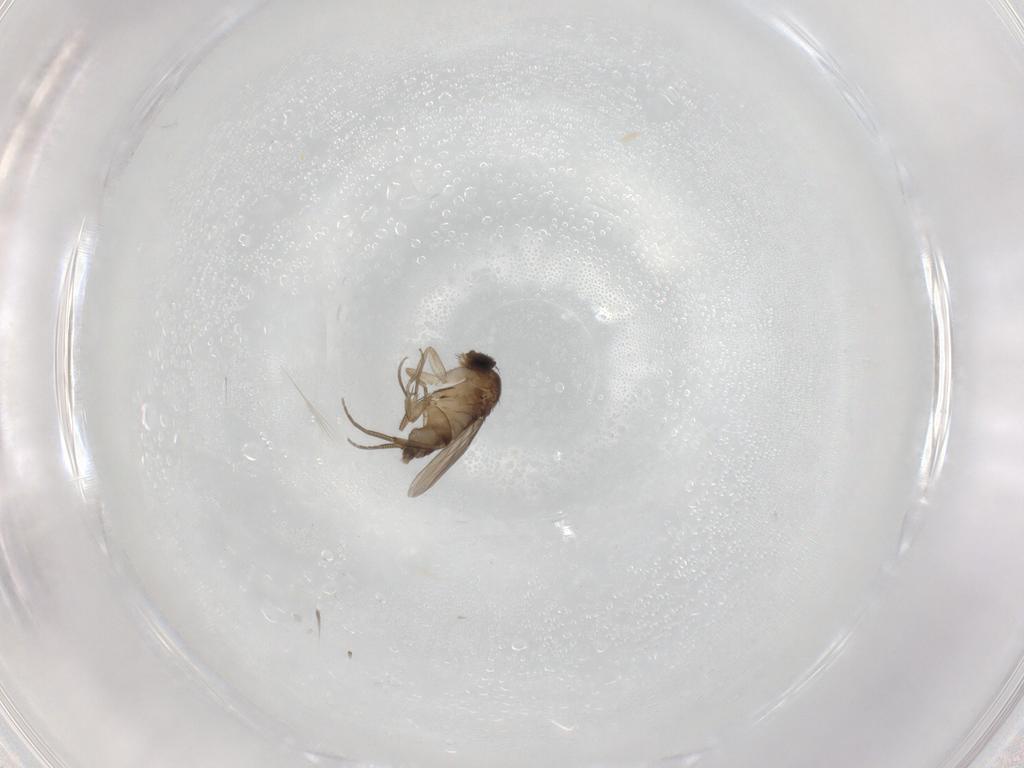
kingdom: Animalia
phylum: Arthropoda
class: Insecta
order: Diptera
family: Phoridae
